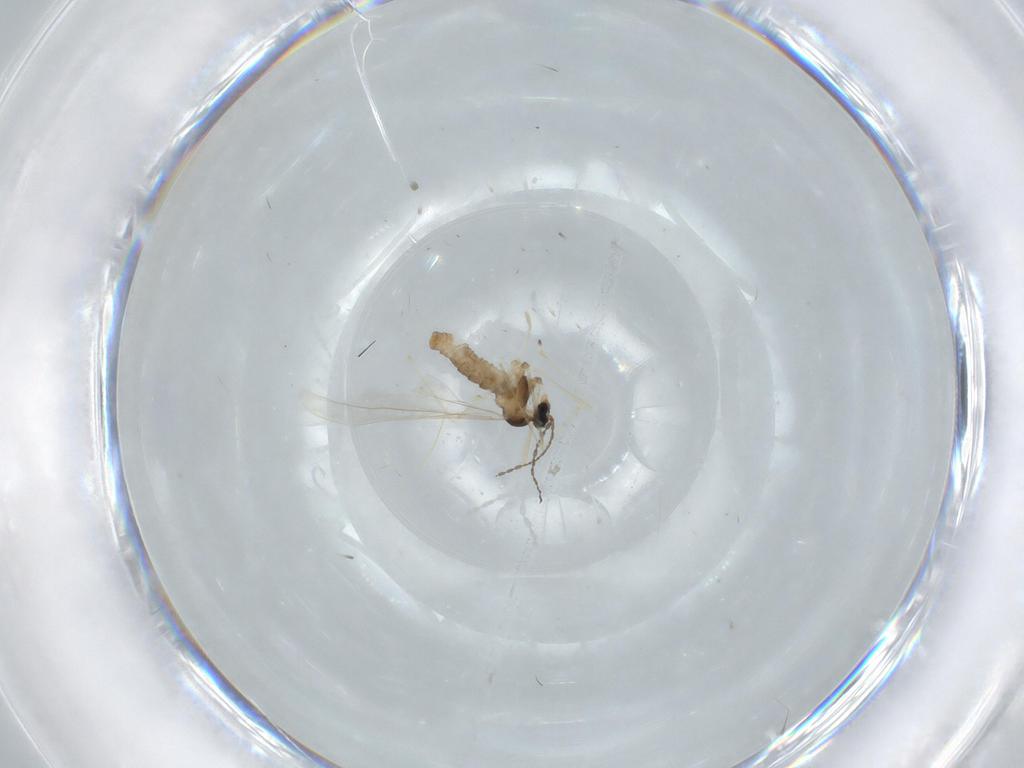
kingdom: Animalia
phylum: Arthropoda
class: Insecta
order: Diptera
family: Cecidomyiidae
